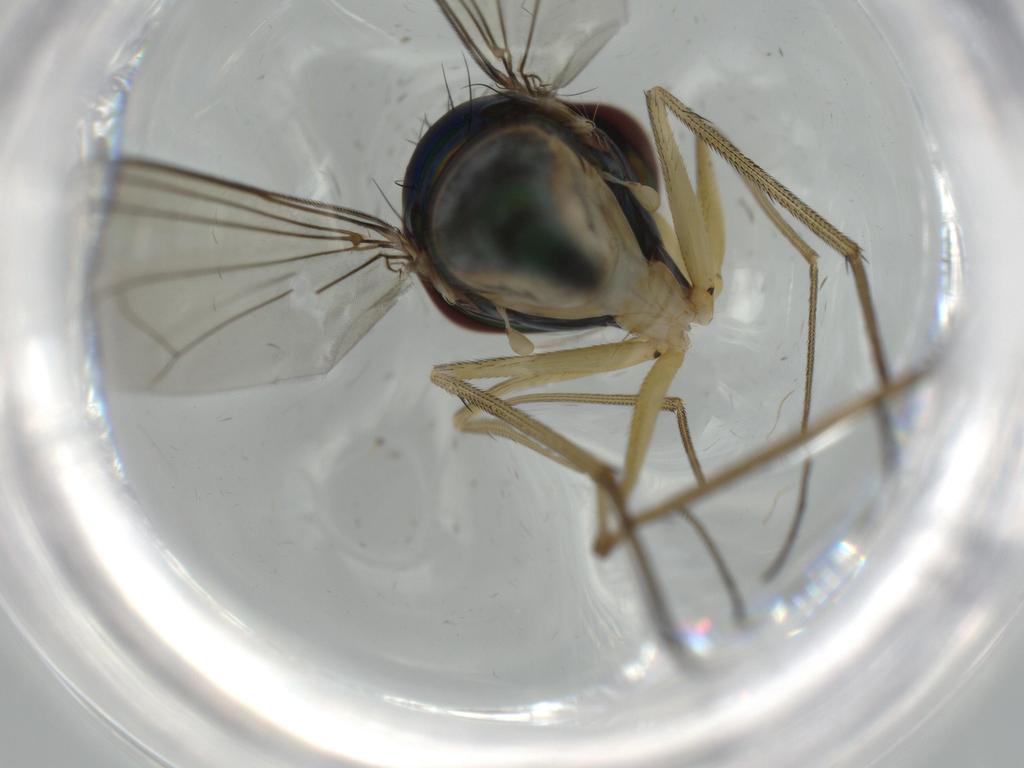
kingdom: Animalia
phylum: Arthropoda
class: Insecta
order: Diptera
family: Dolichopodidae
